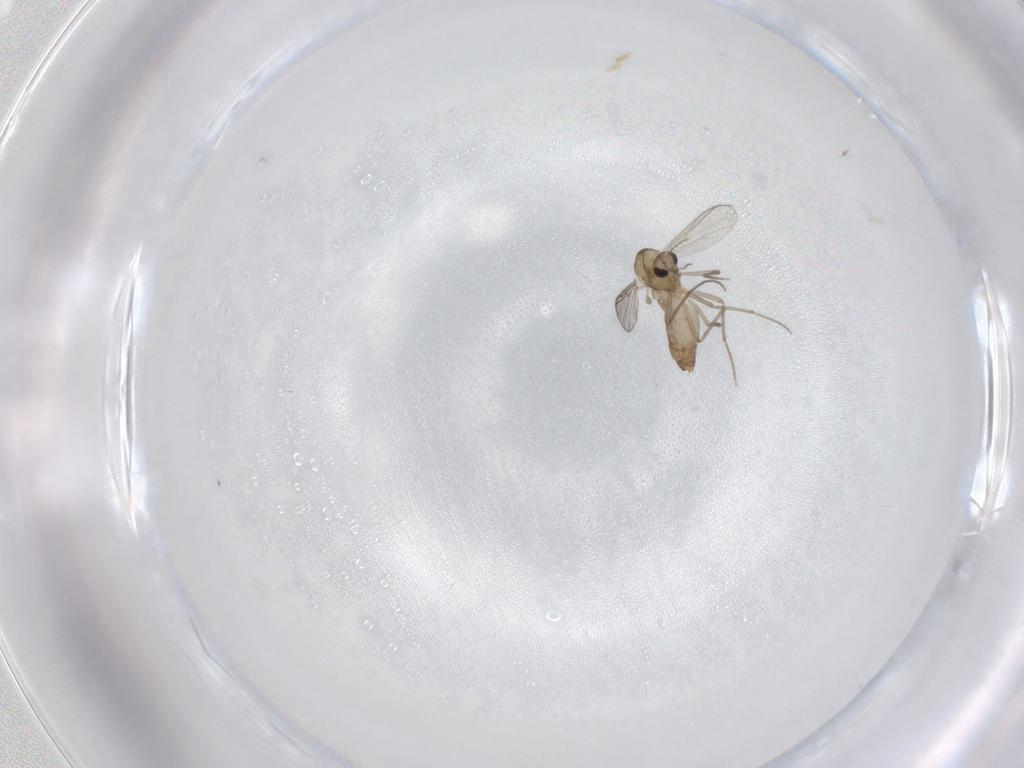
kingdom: Animalia
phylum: Arthropoda
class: Insecta
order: Diptera
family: Chironomidae
